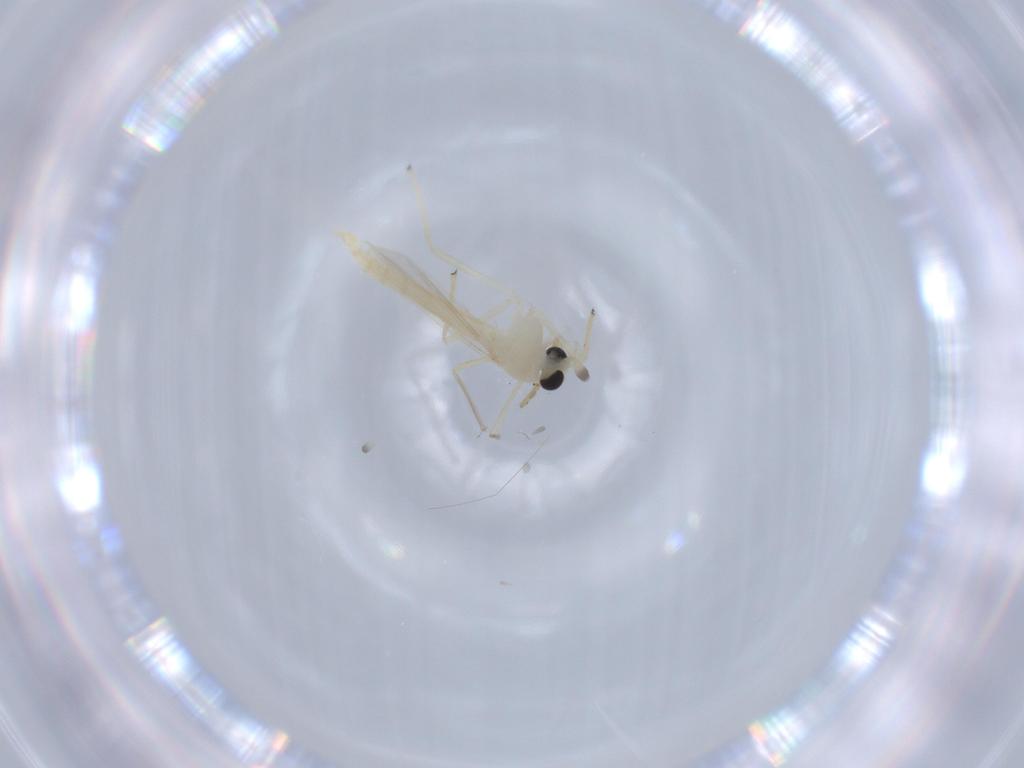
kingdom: Animalia
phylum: Arthropoda
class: Insecta
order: Diptera
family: Chironomidae
